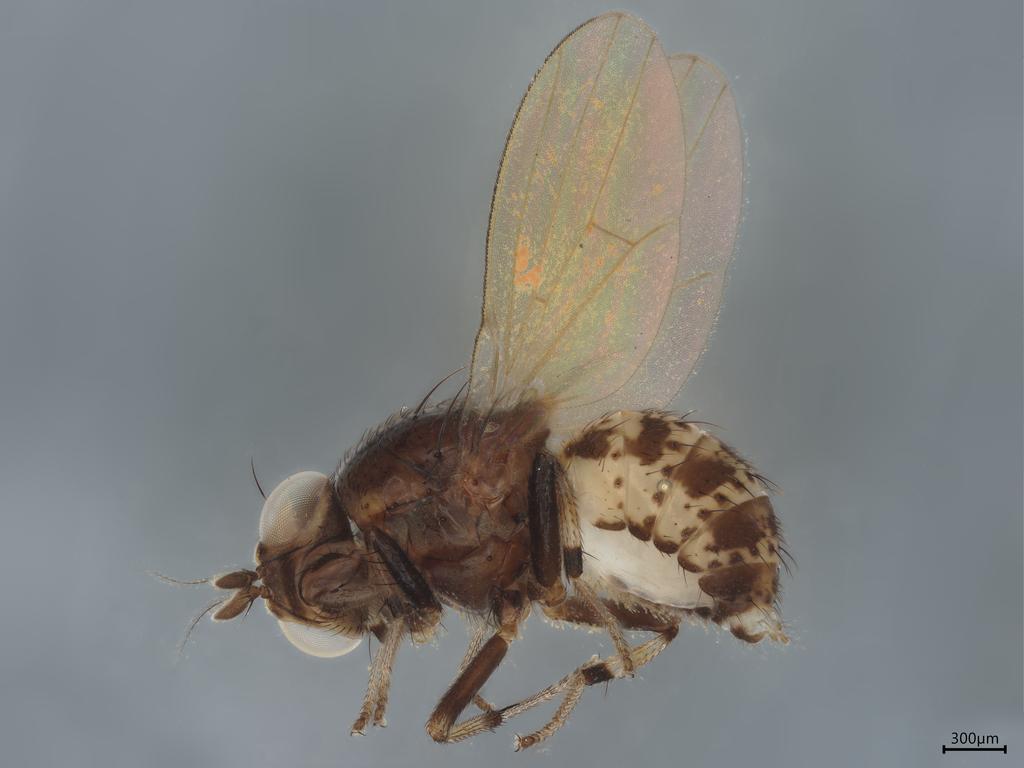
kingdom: Animalia
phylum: Arthropoda
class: Insecta
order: Diptera
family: Chironomidae
